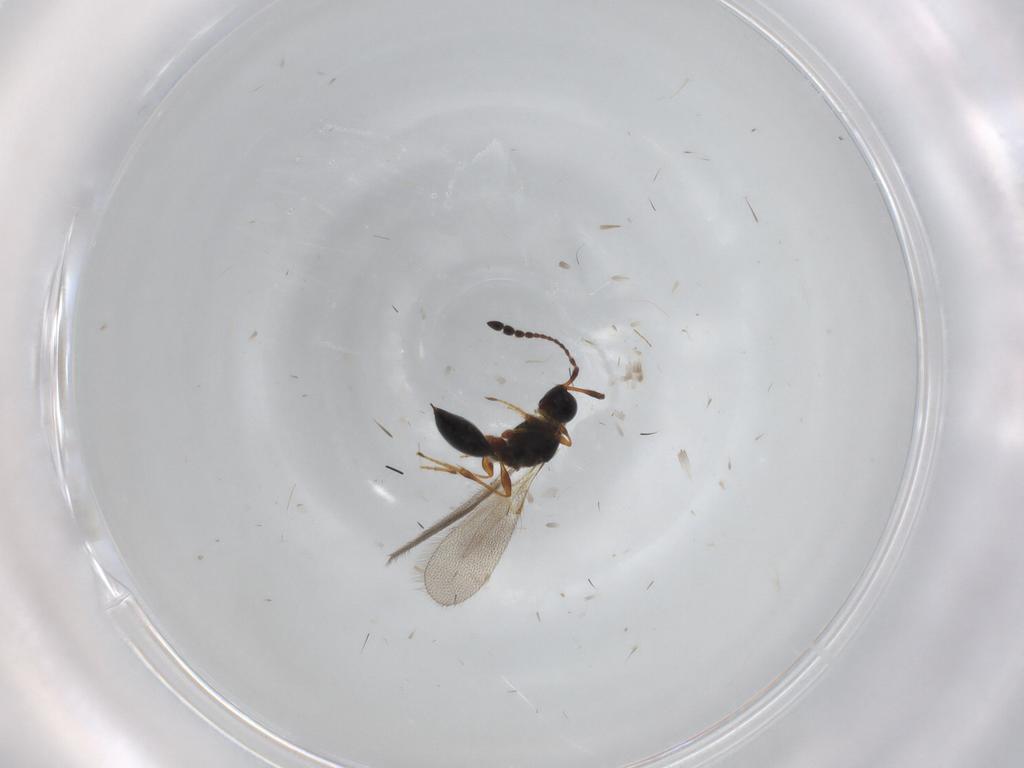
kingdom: Animalia
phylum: Arthropoda
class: Insecta
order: Hymenoptera
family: Diapriidae
